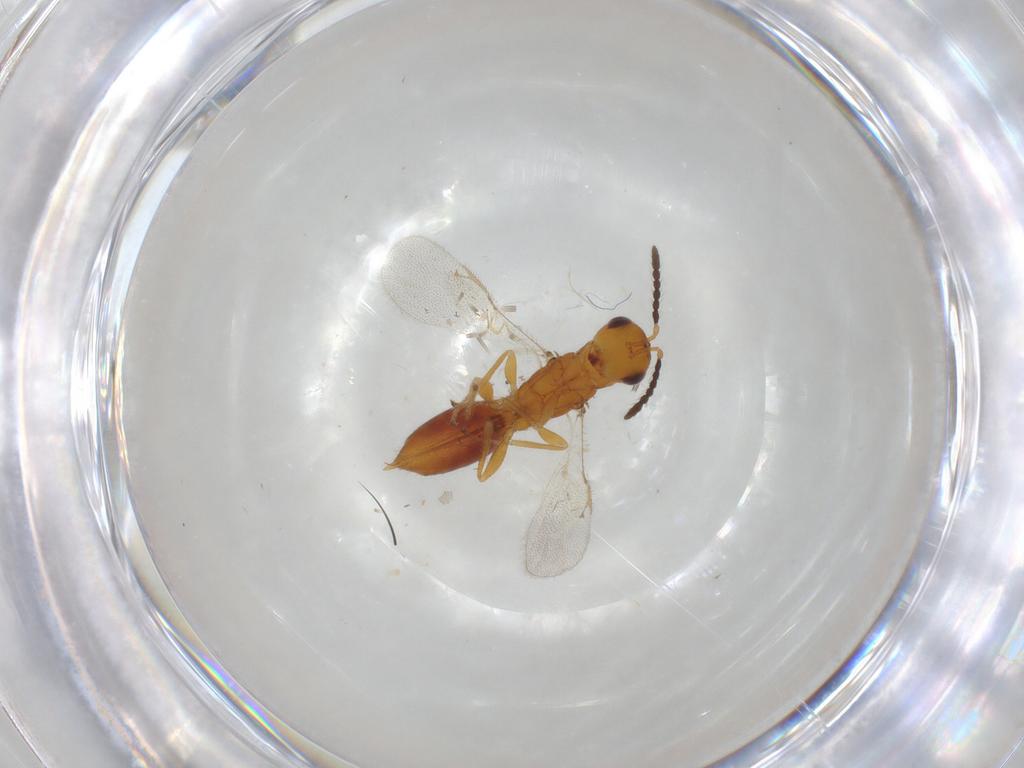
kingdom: Animalia
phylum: Arthropoda
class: Insecta
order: Hymenoptera
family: Eurytomidae
